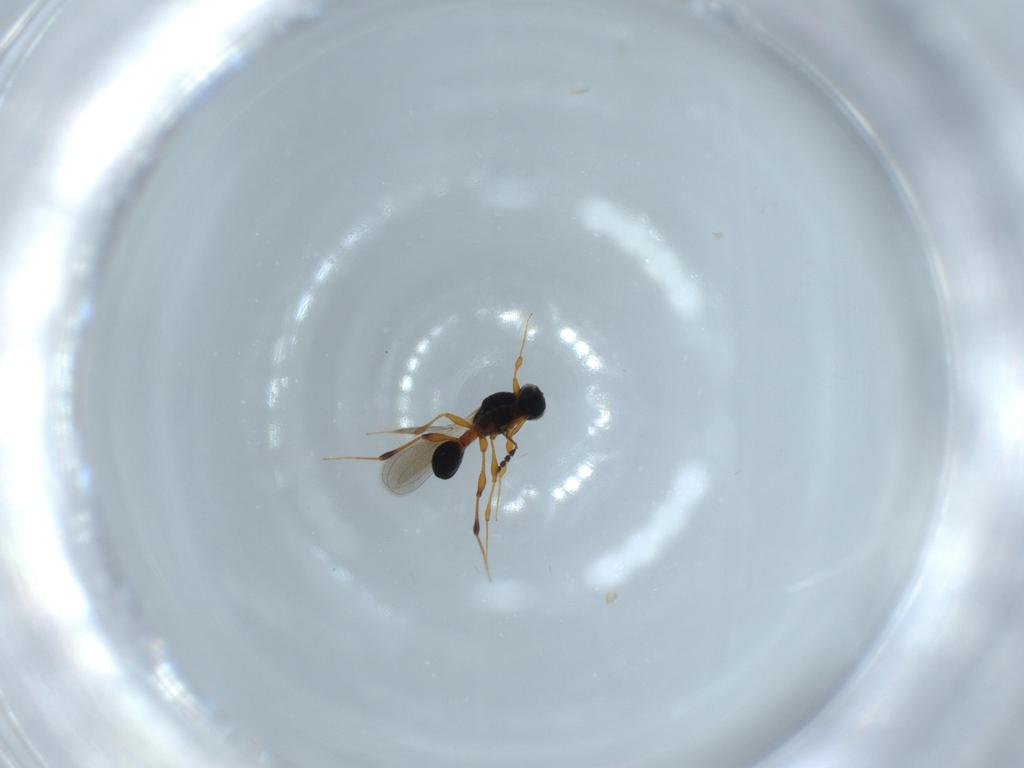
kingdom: Animalia
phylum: Arthropoda
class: Insecta
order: Hymenoptera
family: Platygastridae
